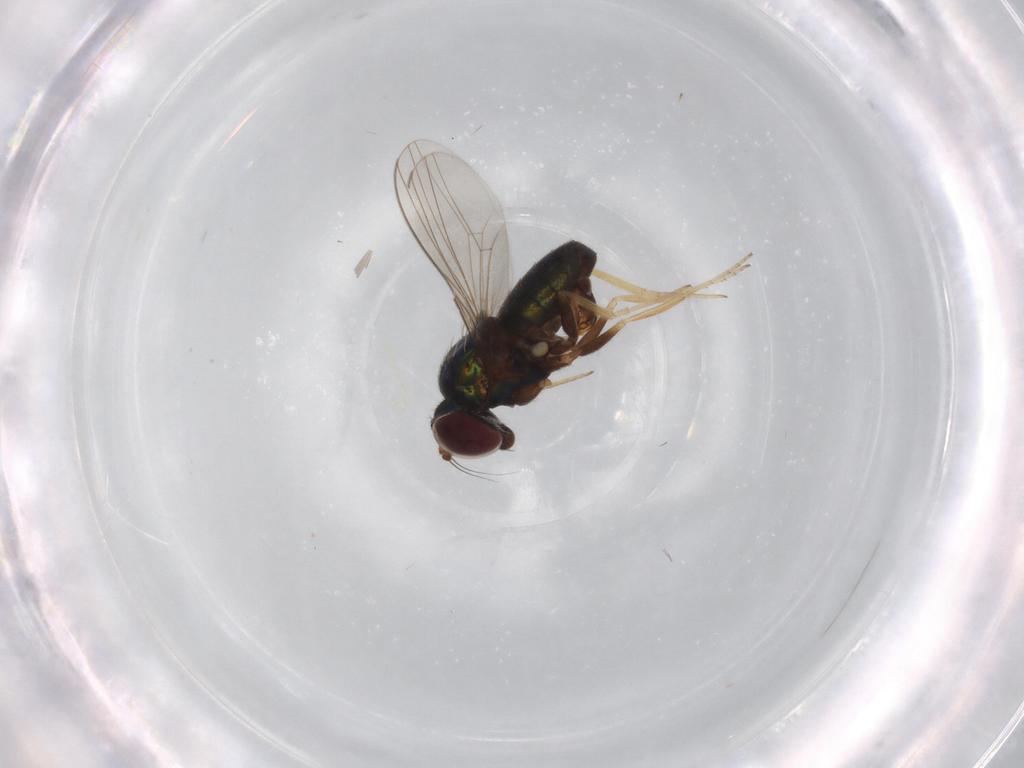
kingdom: Animalia
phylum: Arthropoda
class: Insecta
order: Diptera
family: Dolichopodidae
